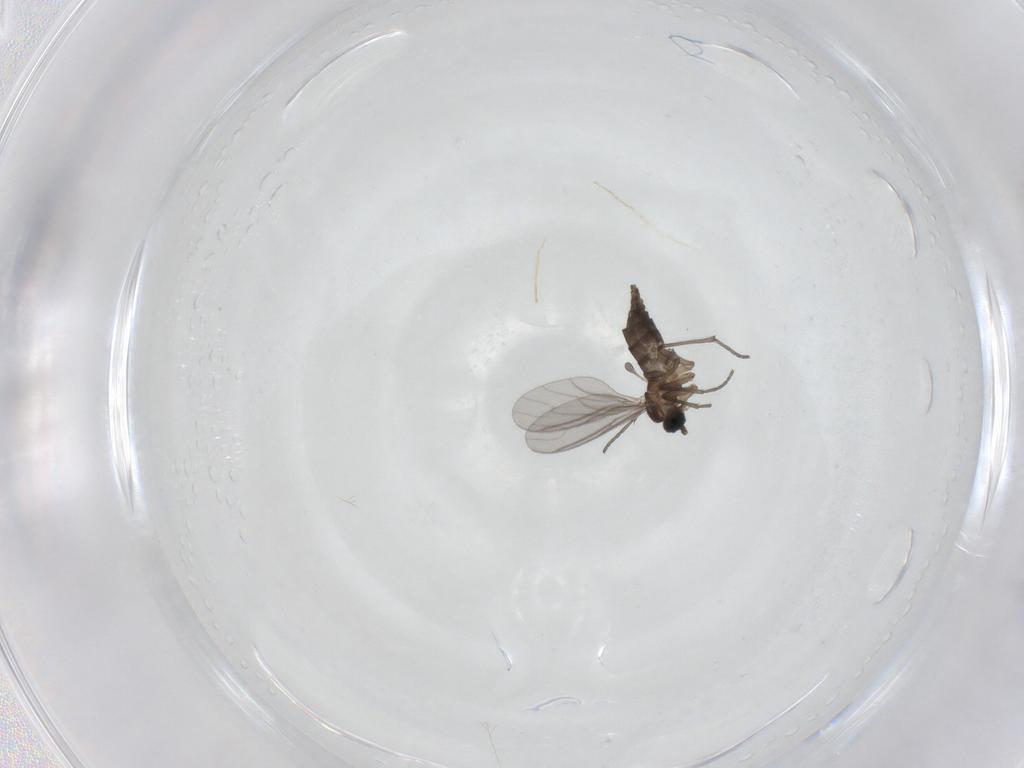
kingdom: Animalia
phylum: Arthropoda
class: Insecta
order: Diptera
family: Sciaridae
